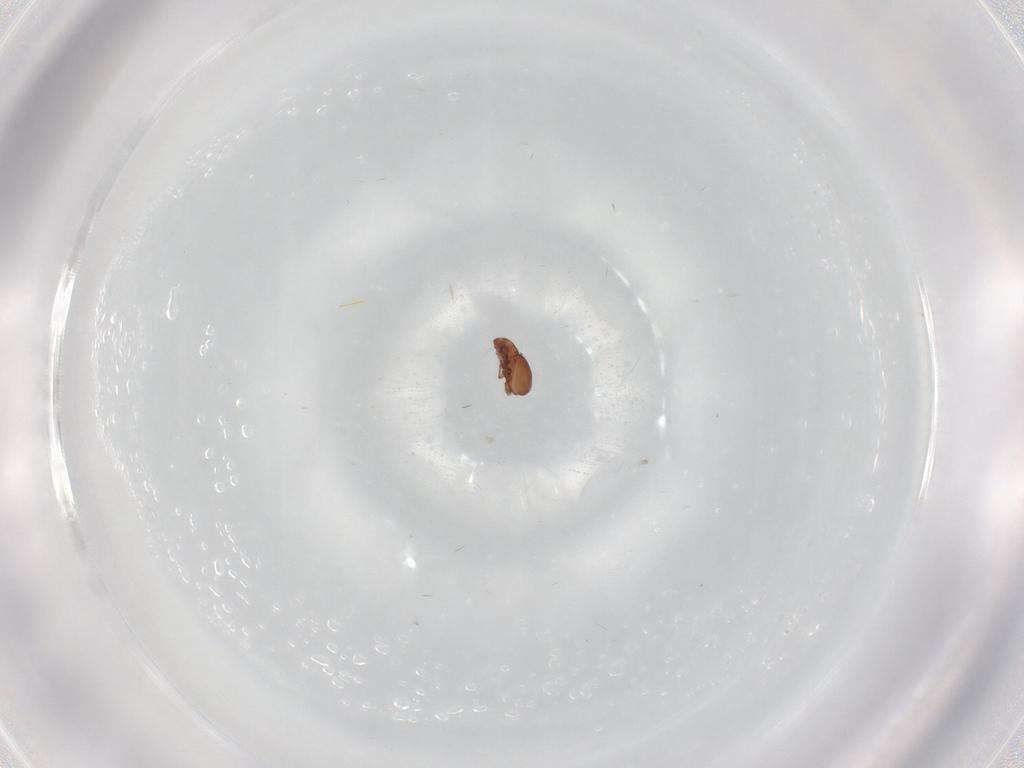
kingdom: Animalia
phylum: Arthropoda
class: Arachnida
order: Sarcoptiformes
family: Eremaeidae
